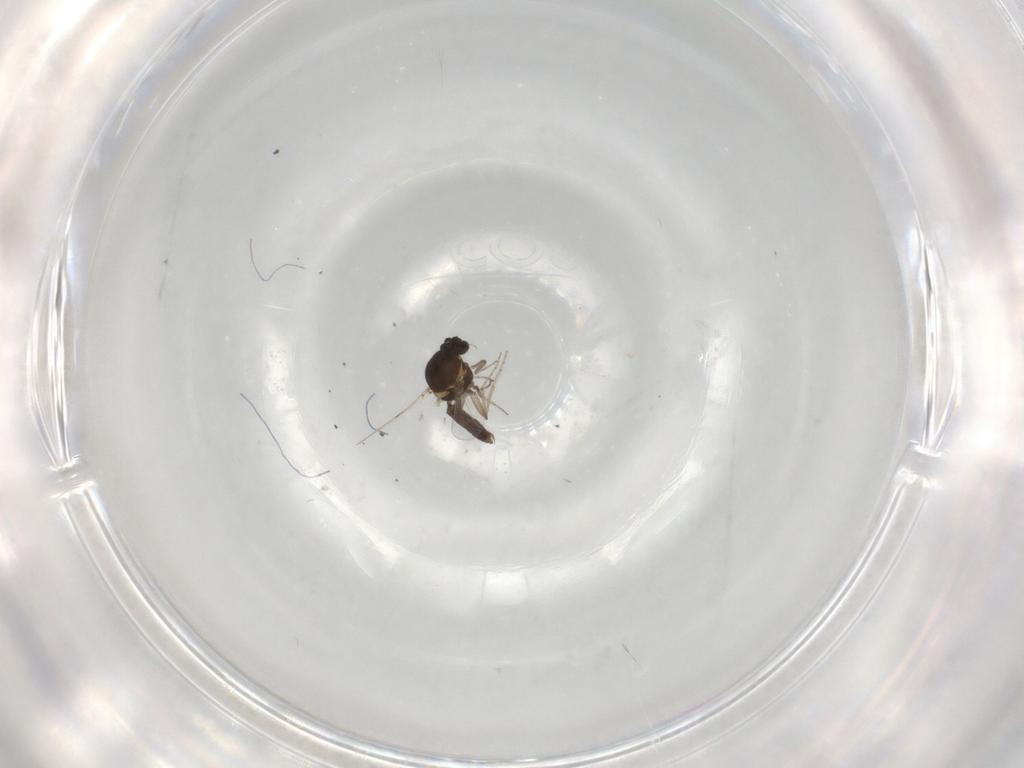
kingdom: Animalia
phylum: Arthropoda
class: Insecta
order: Diptera
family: Ceratopogonidae
